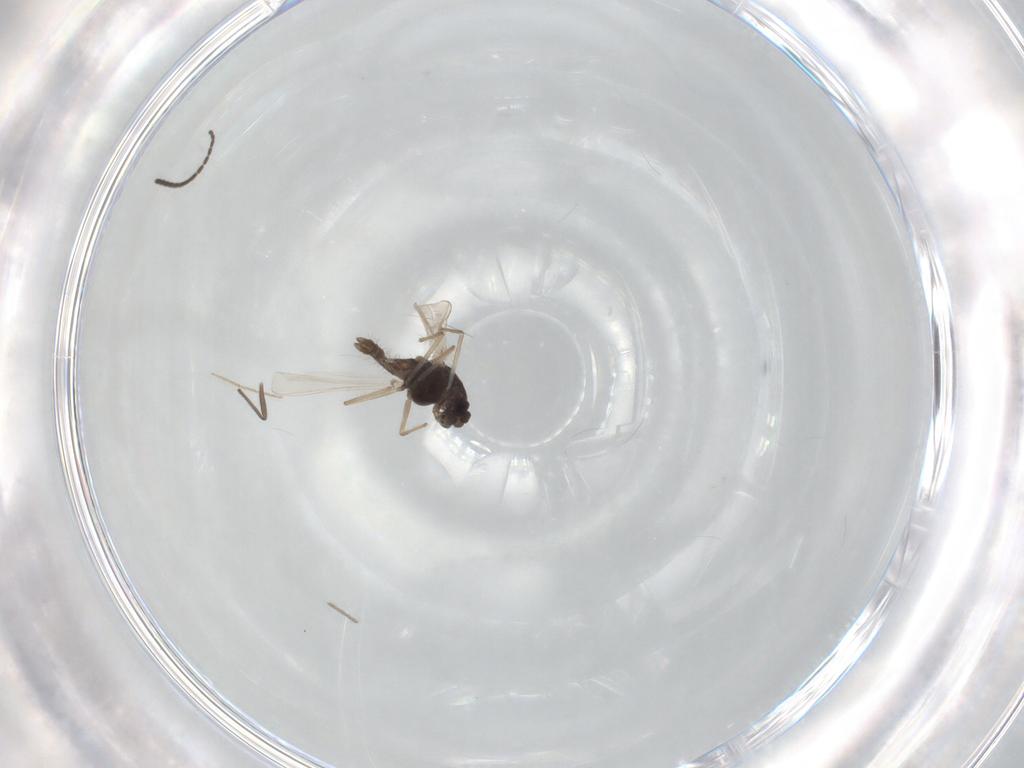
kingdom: Animalia
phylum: Arthropoda
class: Insecta
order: Diptera
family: Chironomidae
